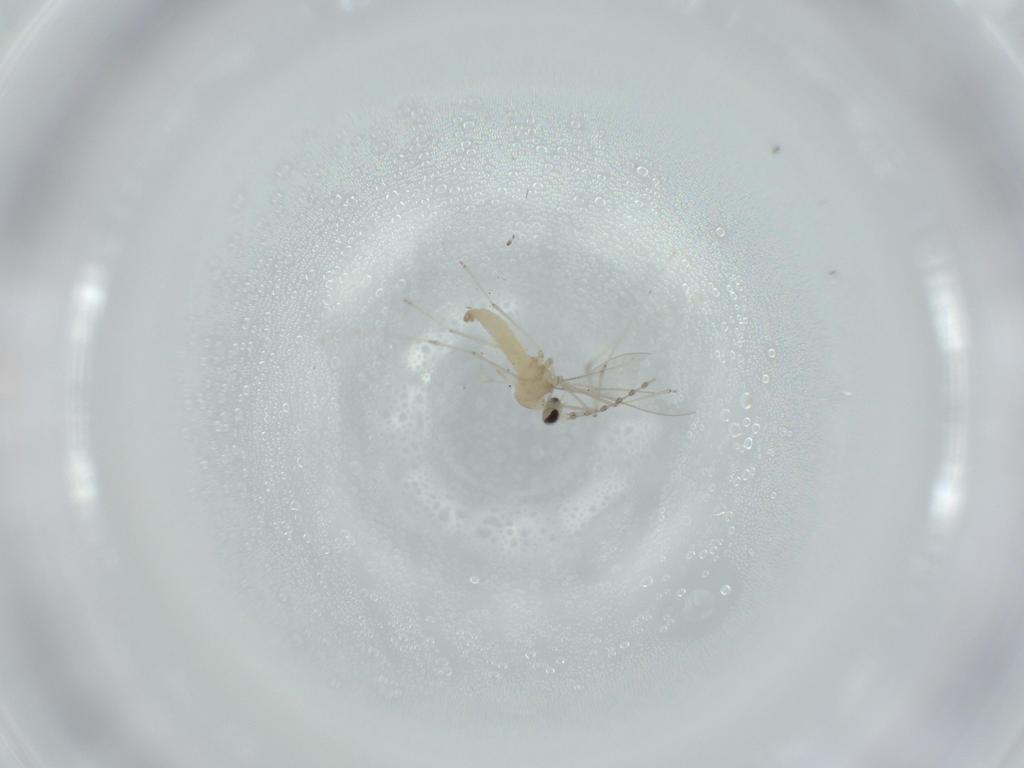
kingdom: Animalia
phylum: Arthropoda
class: Insecta
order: Diptera
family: Cecidomyiidae
